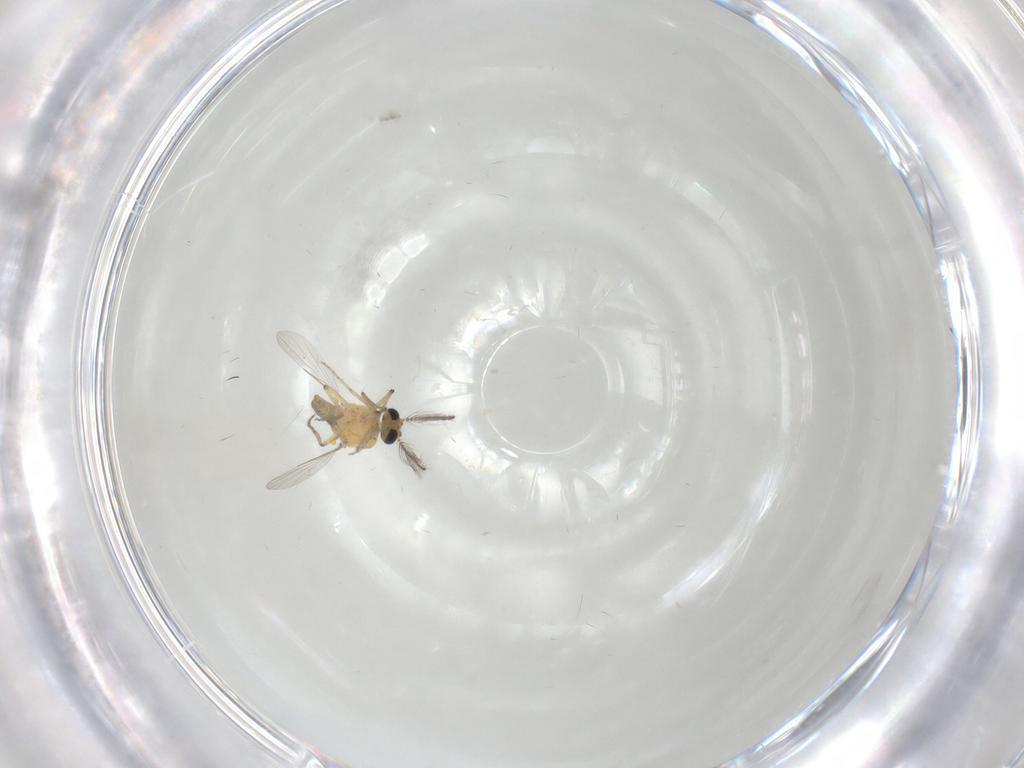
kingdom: Animalia
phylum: Arthropoda
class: Insecta
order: Diptera
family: Ceratopogonidae
